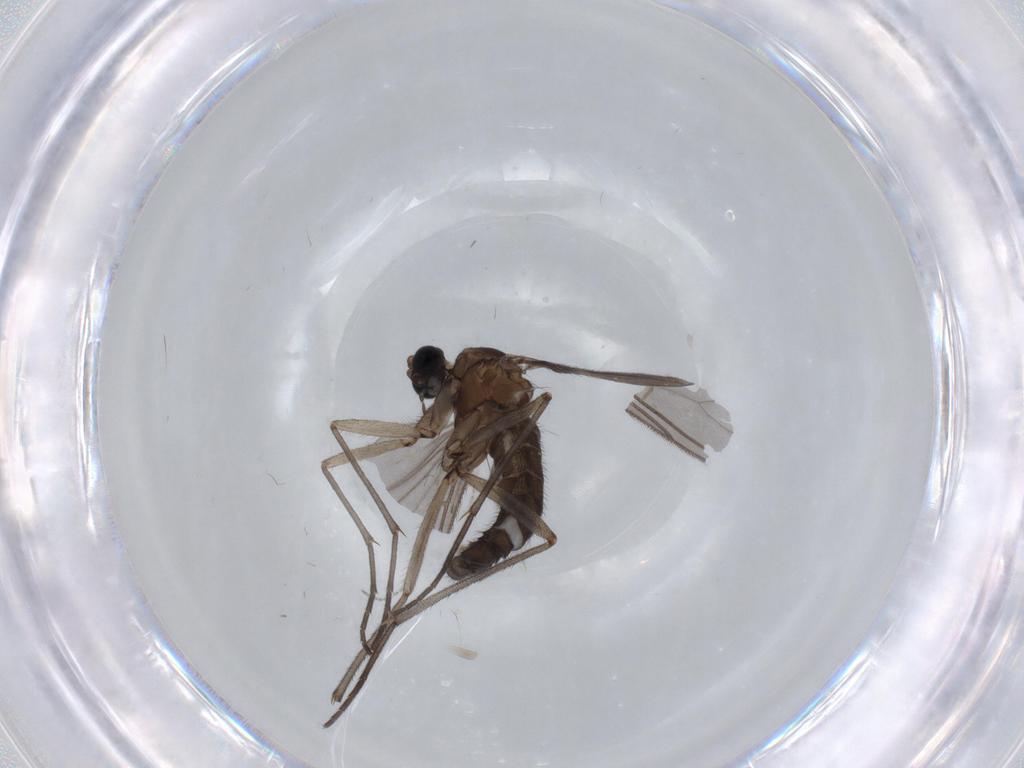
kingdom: Animalia
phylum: Arthropoda
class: Insecta
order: Diptera
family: Sciaridae
